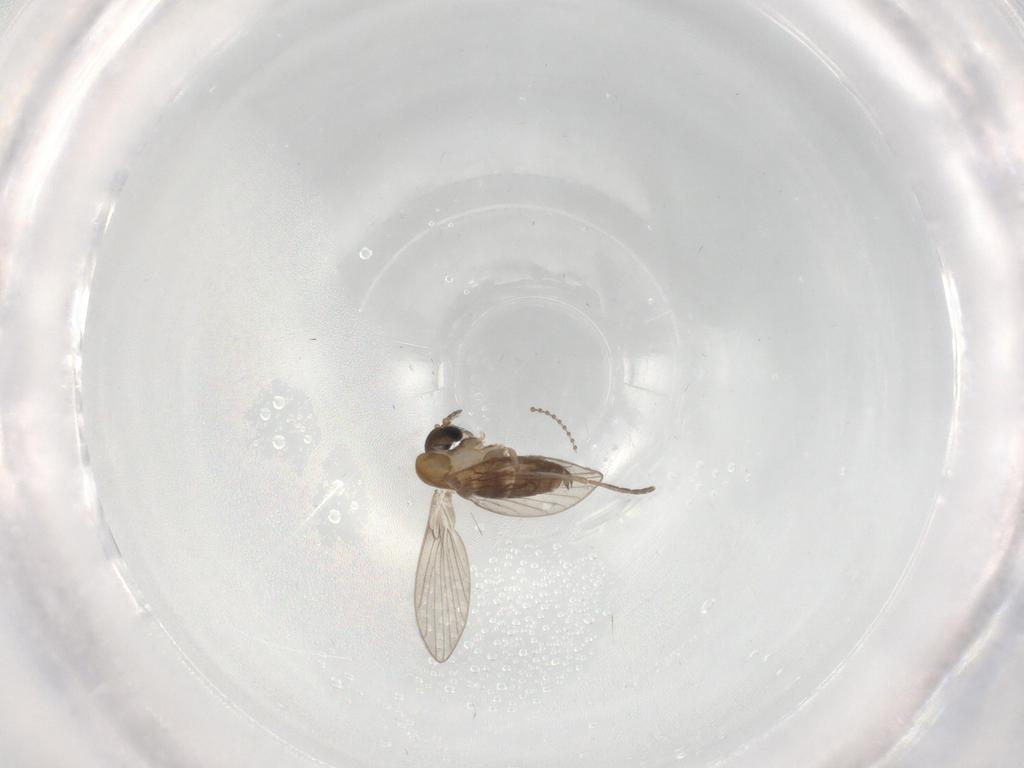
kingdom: Animalia
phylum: Arthropoda
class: Insecta
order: Diptera
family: Psychodidae
